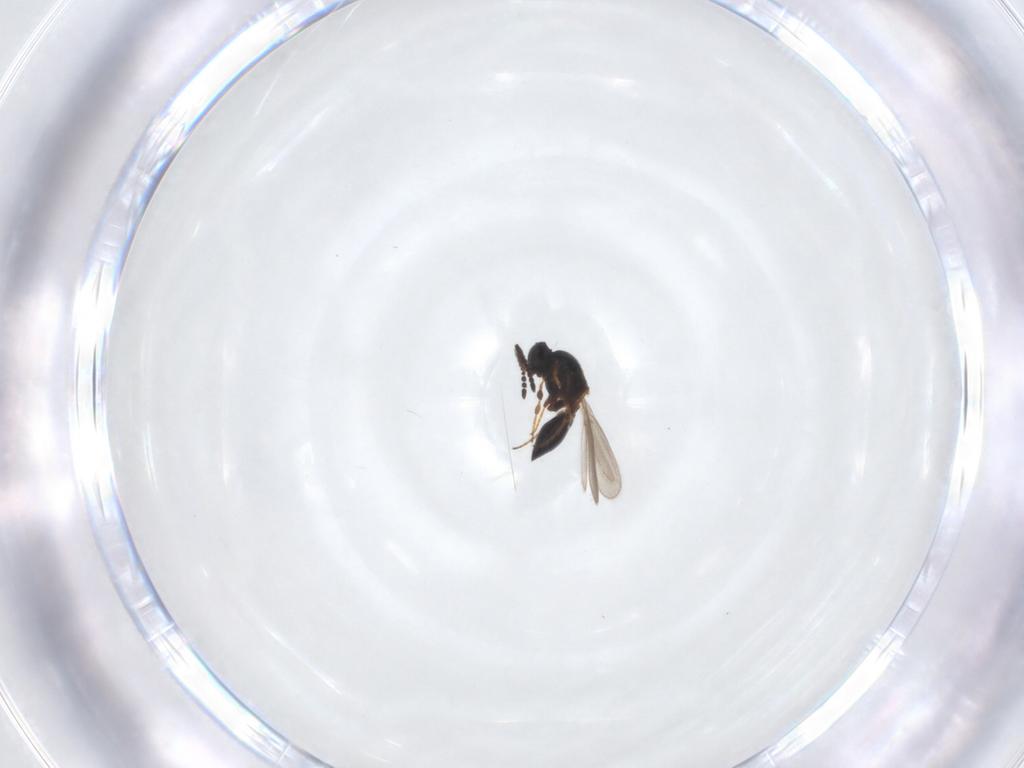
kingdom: Animalia
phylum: Arthropoda
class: Insecta
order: Hymenoptera
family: Platygastridae
